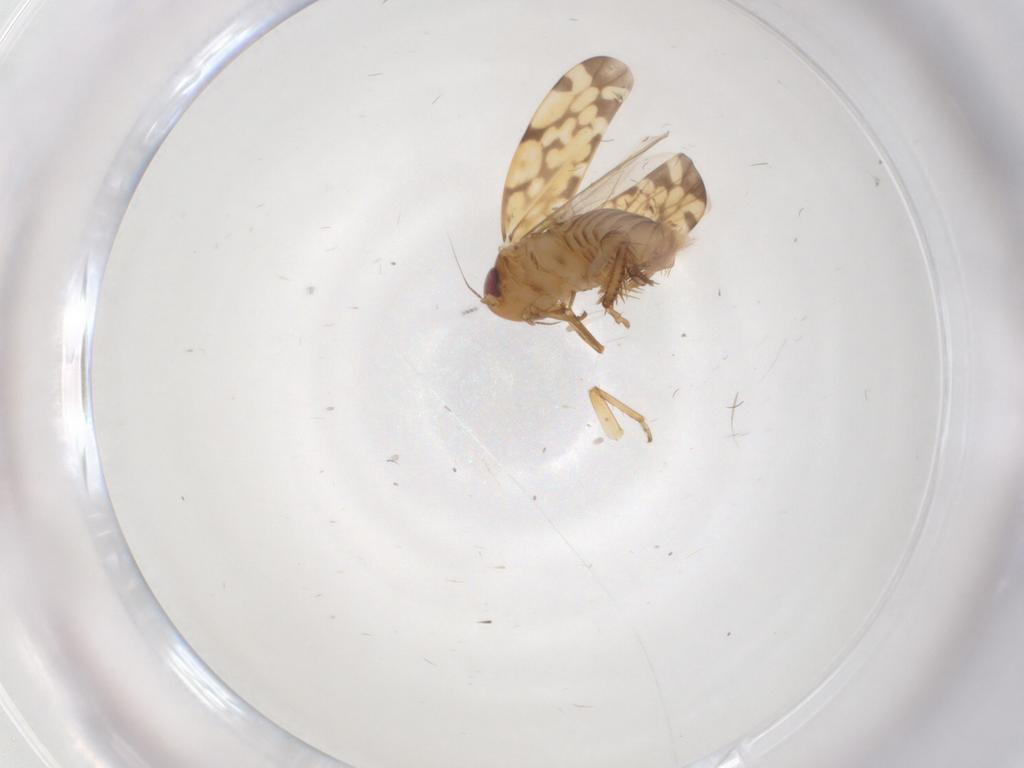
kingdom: Animalia
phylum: Arthropoda
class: Insecta
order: Hemiptera
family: Cicadellidae
